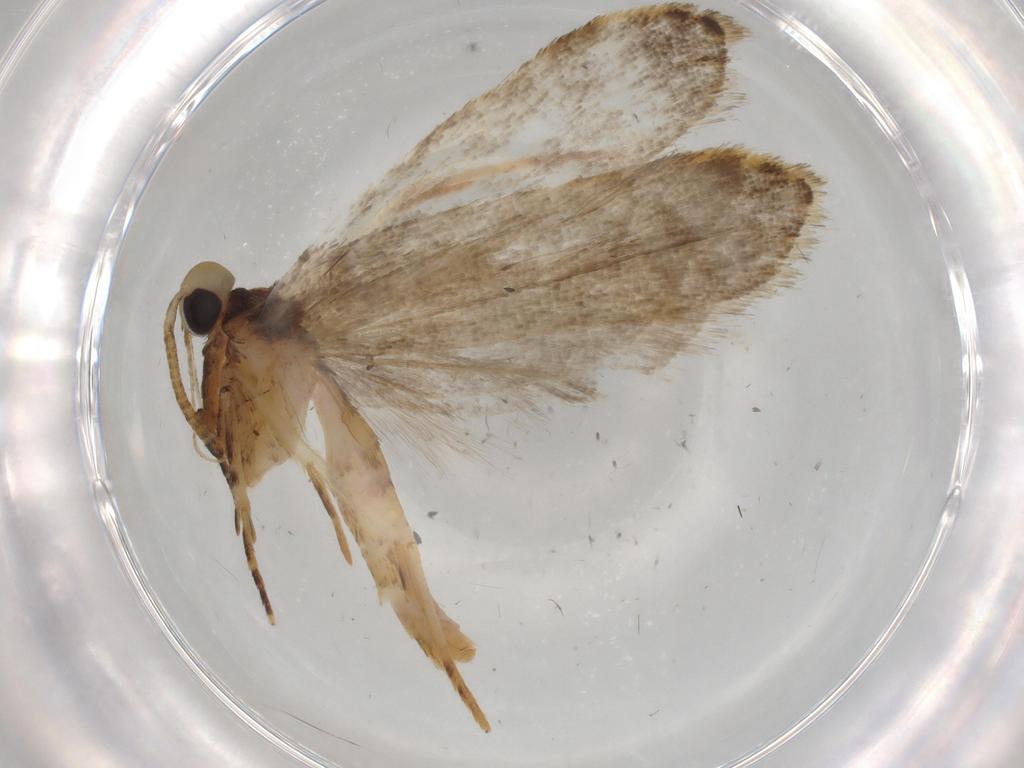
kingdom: Animalia
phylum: Arthropoda
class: Insecta
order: Lepidoptera
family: Autostichidae
